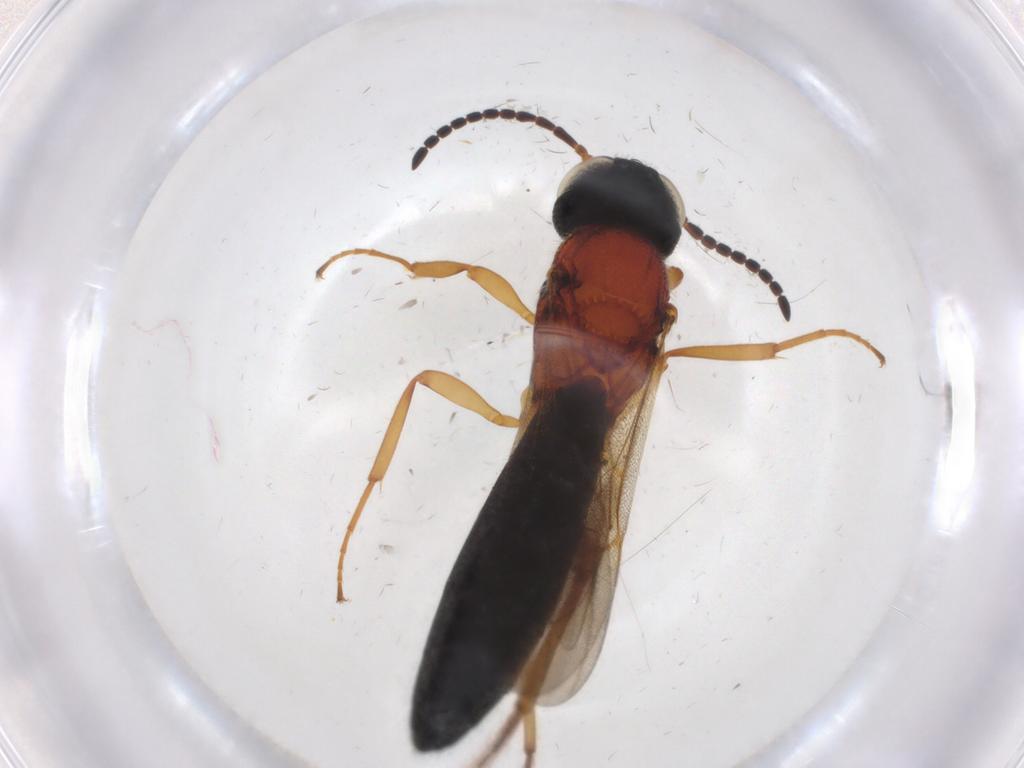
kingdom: Animalia
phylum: Arthropoda
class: Insecta
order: Hymenoptera
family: Scelionidae
